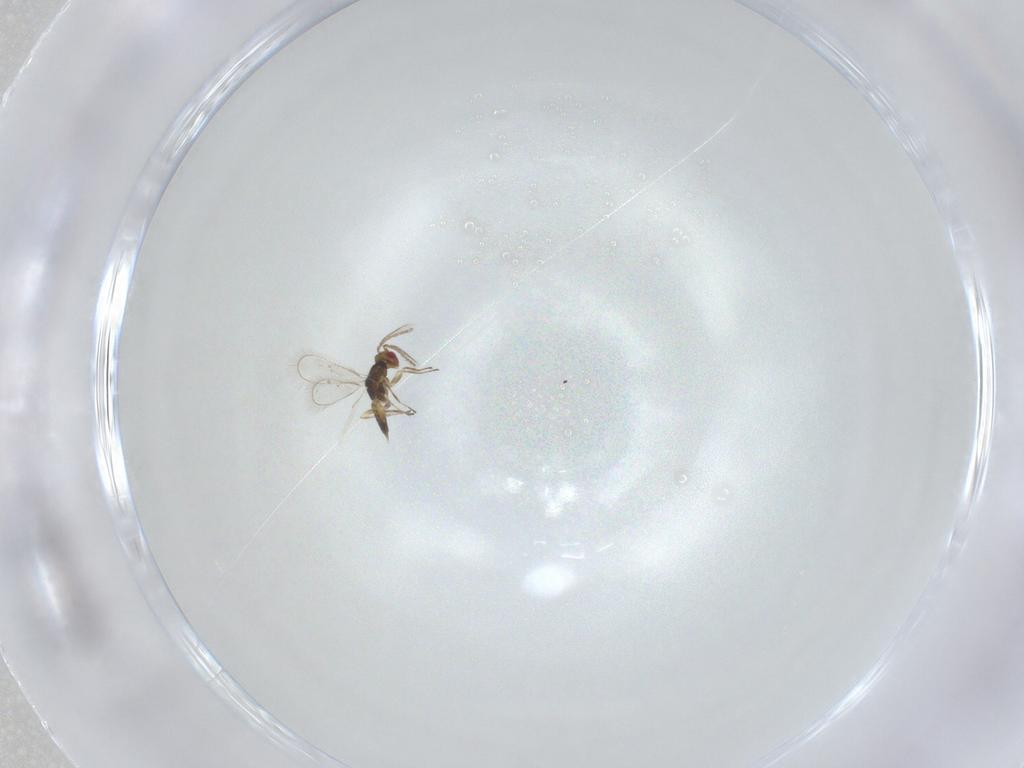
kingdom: Animalia
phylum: Arthropoda
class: Insecta
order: Hymenoptera
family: Eulophidae
